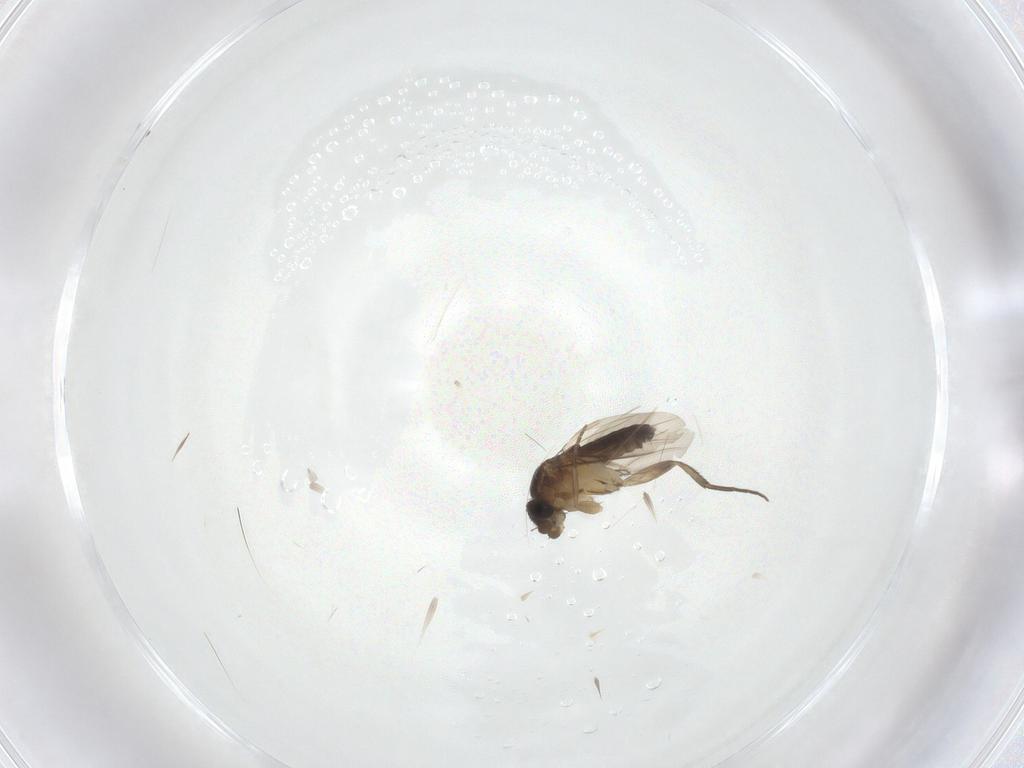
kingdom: Animalia
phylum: Arthropoda
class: Insecta
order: Diptera
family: Phoridae
